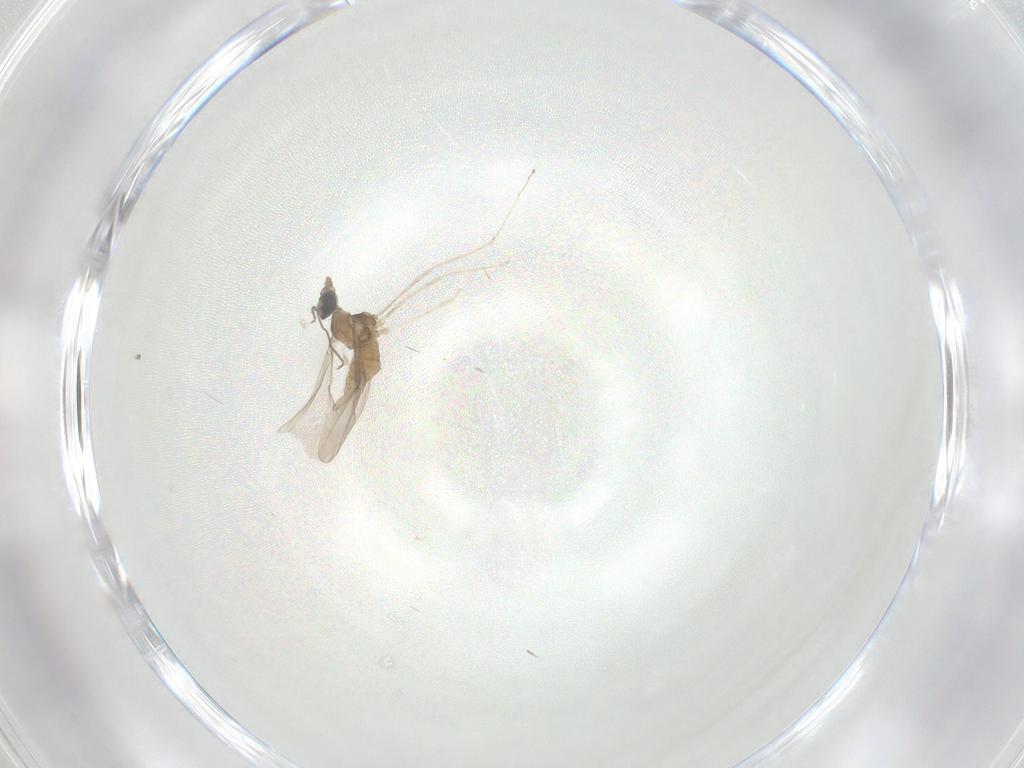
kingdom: Animalia
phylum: Arthropoda
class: Insecta
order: Diptera
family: Cecidomyiidae
